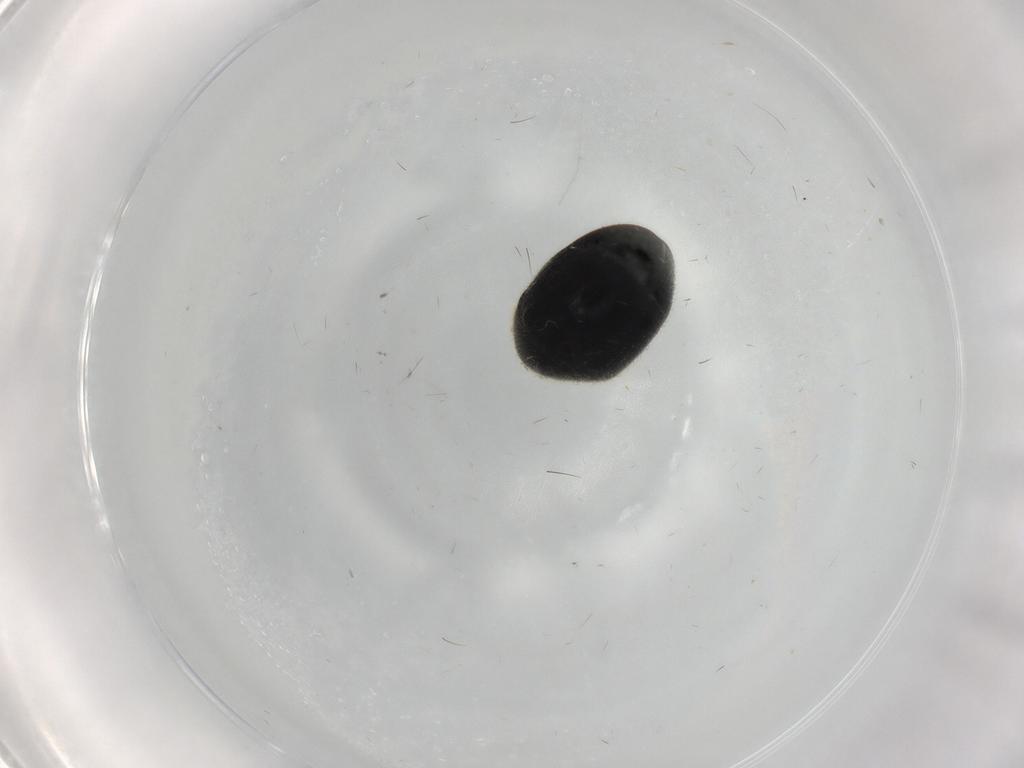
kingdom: Animalia
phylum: Arthropoda
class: Insecta
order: Coleoptera
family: Ptinidae
